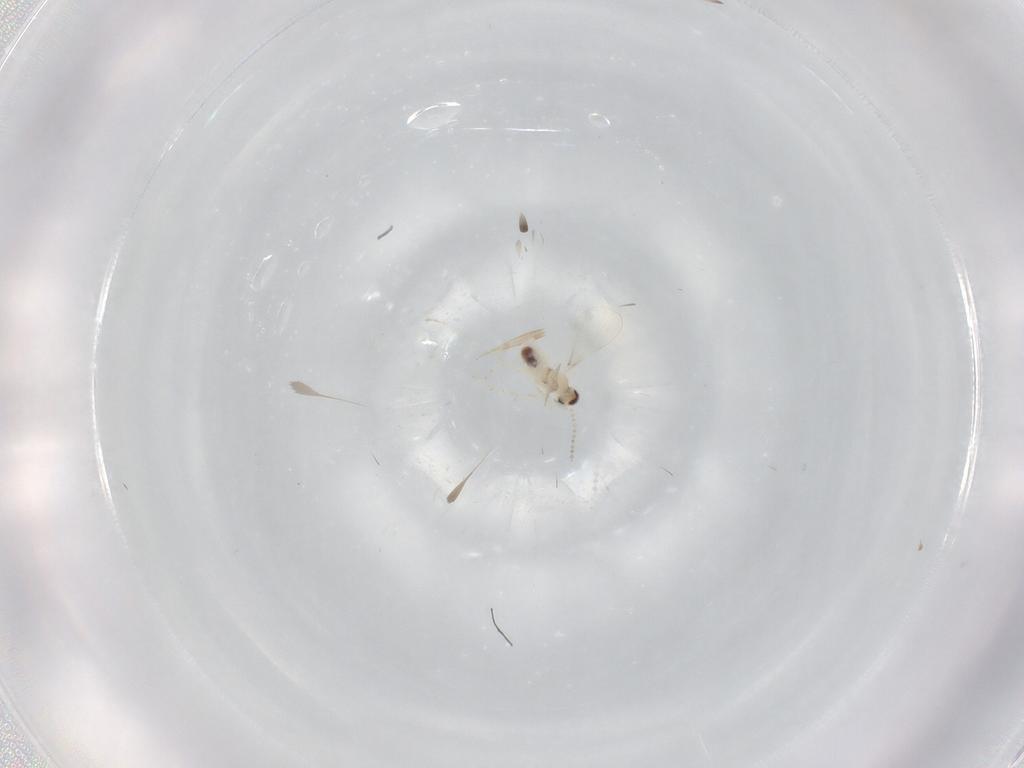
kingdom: Animalia
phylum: Arthropoda
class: Insecta
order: Diptera
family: Cecidomyiidae
